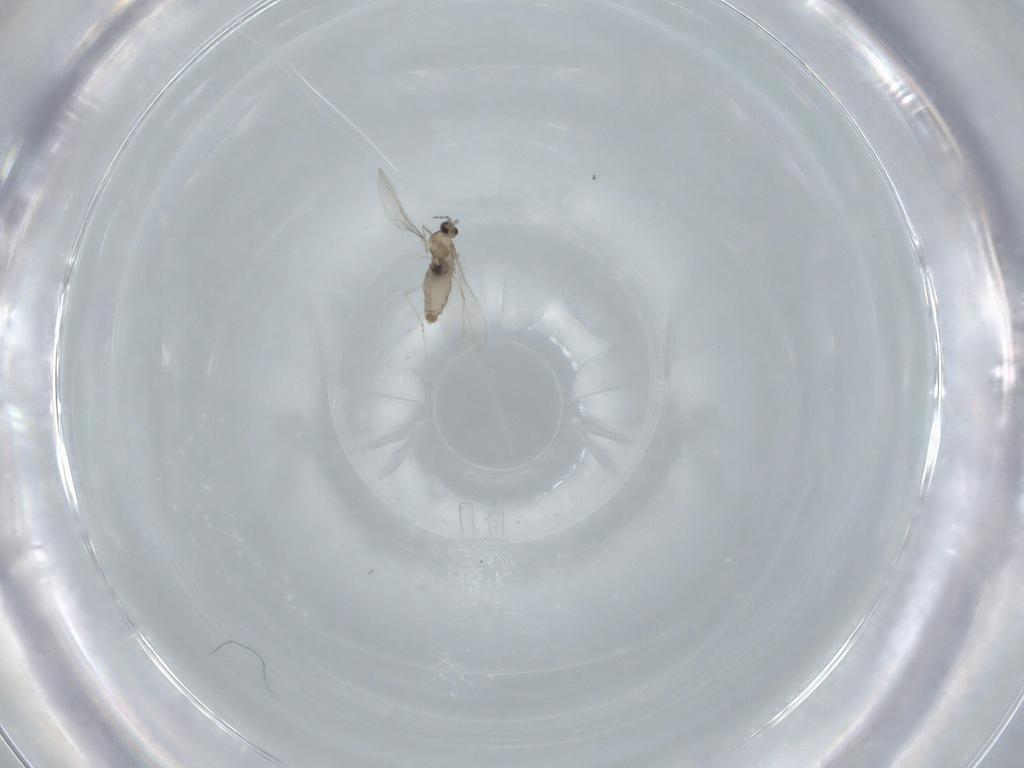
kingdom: Animalia
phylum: Arthropoda
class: Insecta
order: Diptera
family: Cecidomyiidae
